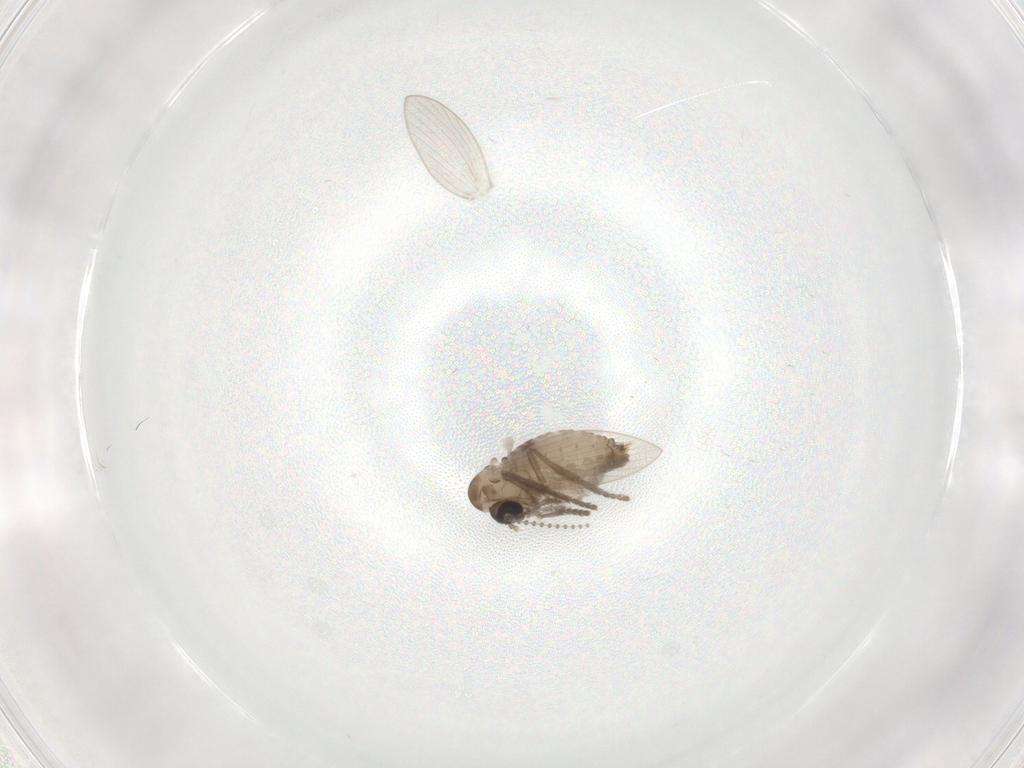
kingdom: Animalia
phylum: Arthropoda
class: Insecta
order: Diptera
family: Psychodidae
